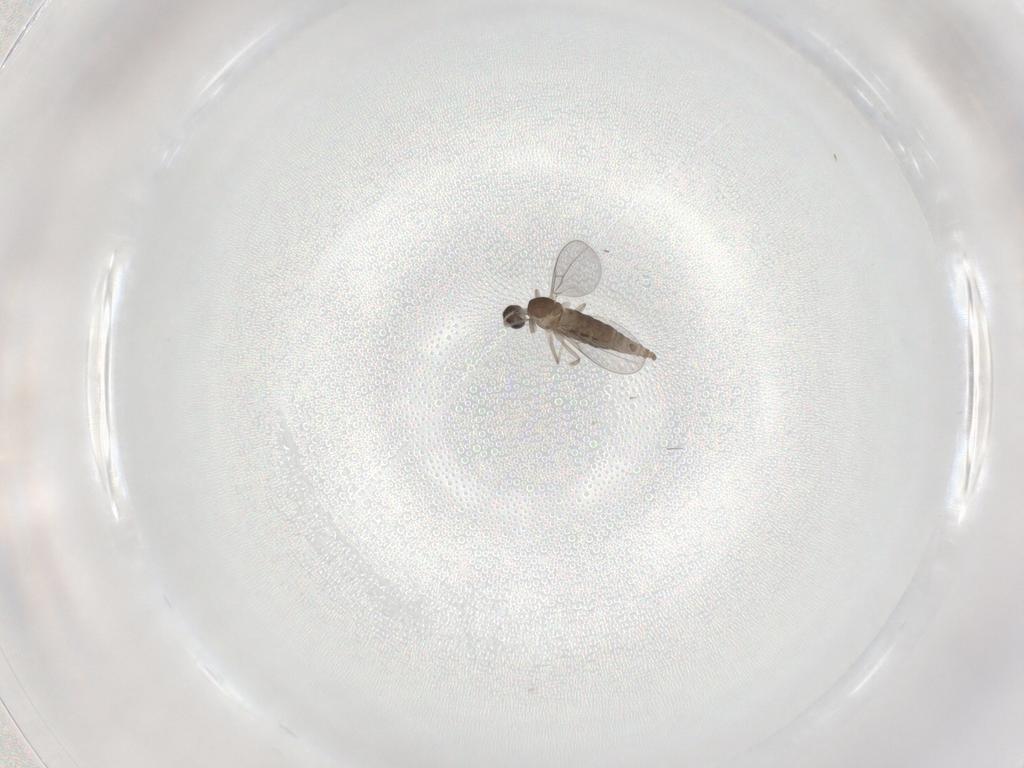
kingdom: Animalia
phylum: Arthropoda
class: Insecta
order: Diptera
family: Cecidomyiidae
